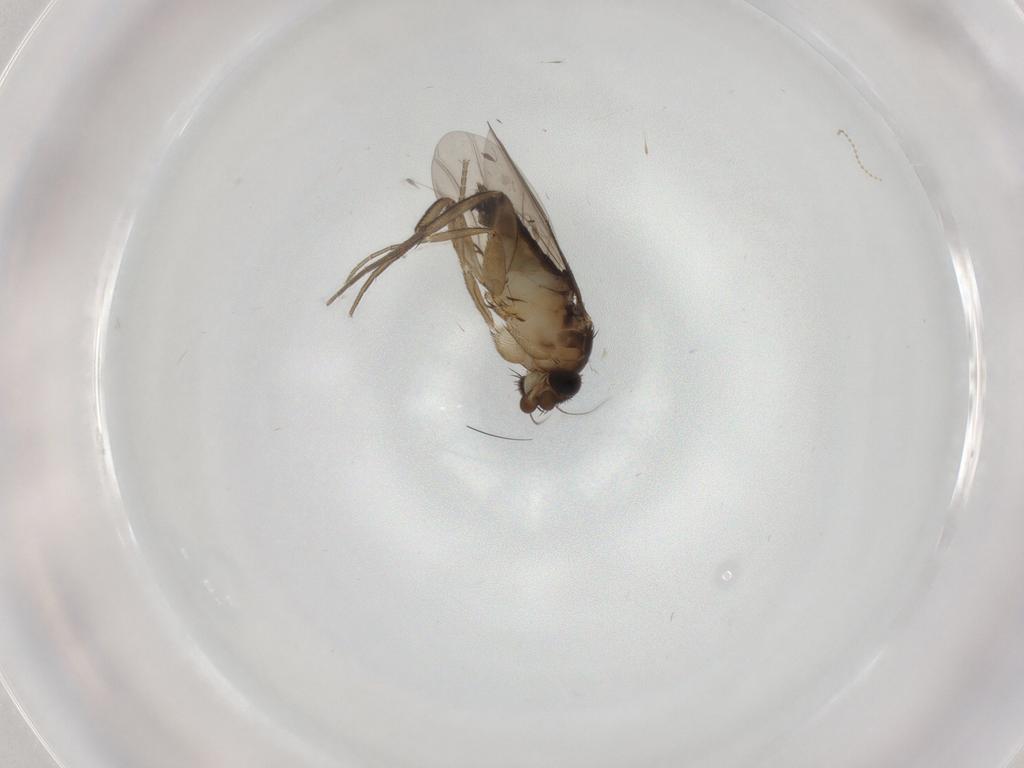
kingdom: Animalia
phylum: Arthropoda
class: Insecta
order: Diptera
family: Phoridae
